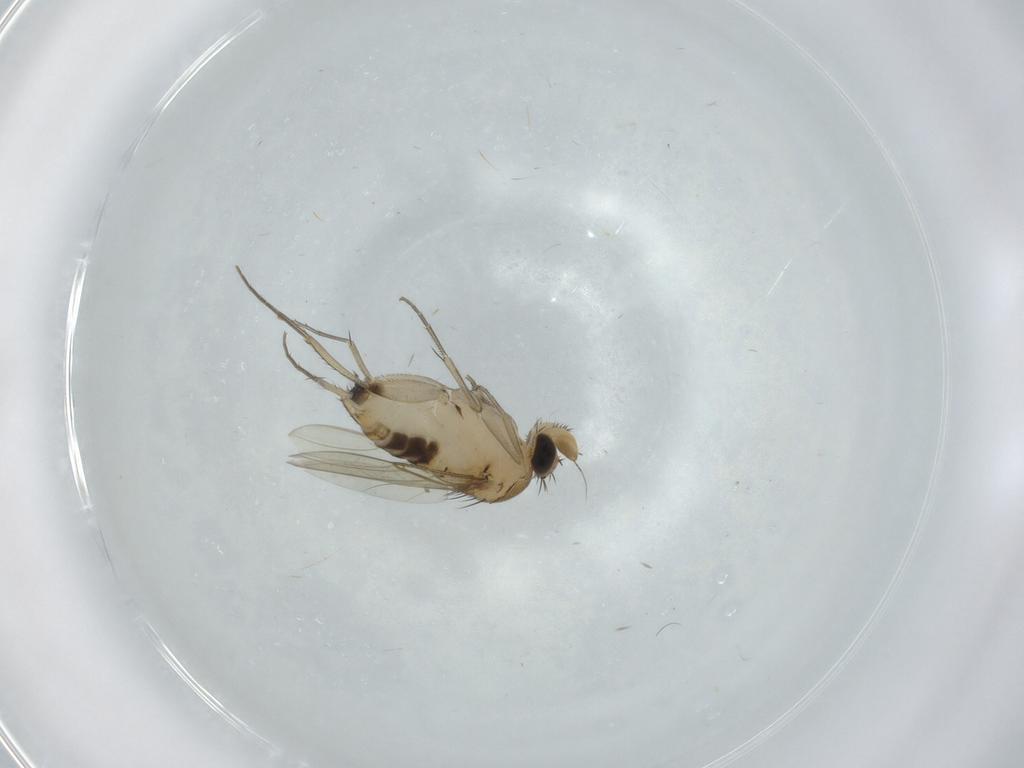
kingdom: Animalia
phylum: Arthropoda
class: Insecta
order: Diptera
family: Phoridae
